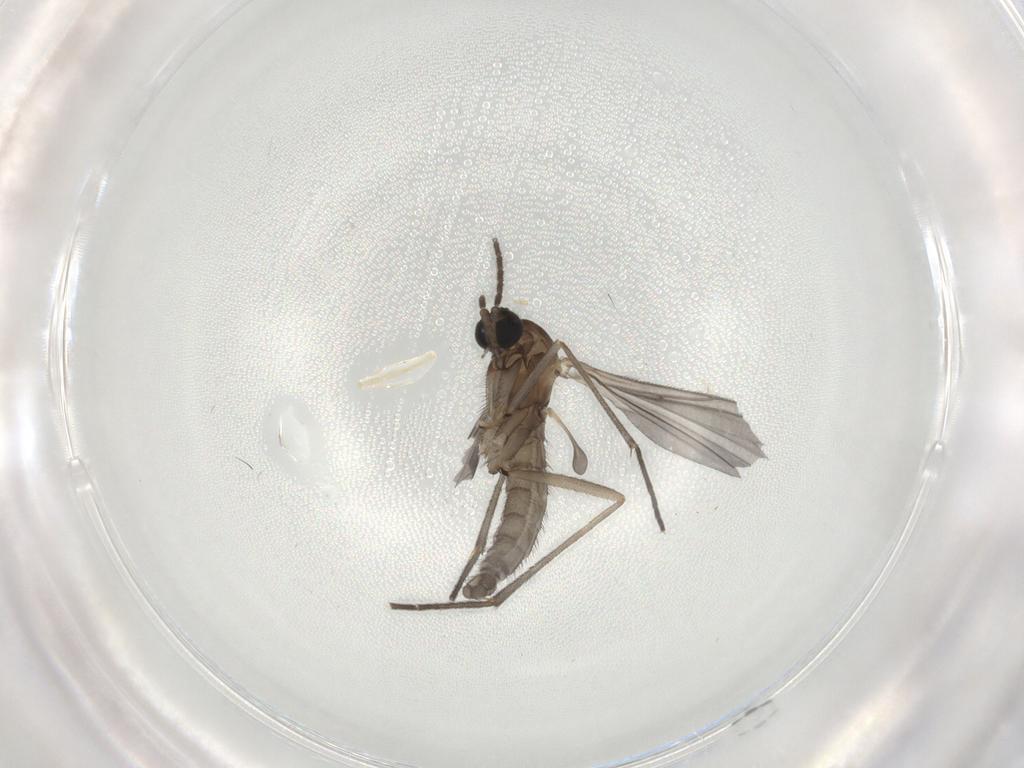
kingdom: Animalia
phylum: Arthropoda
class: Insecta
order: Diptera
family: Sciaridae
